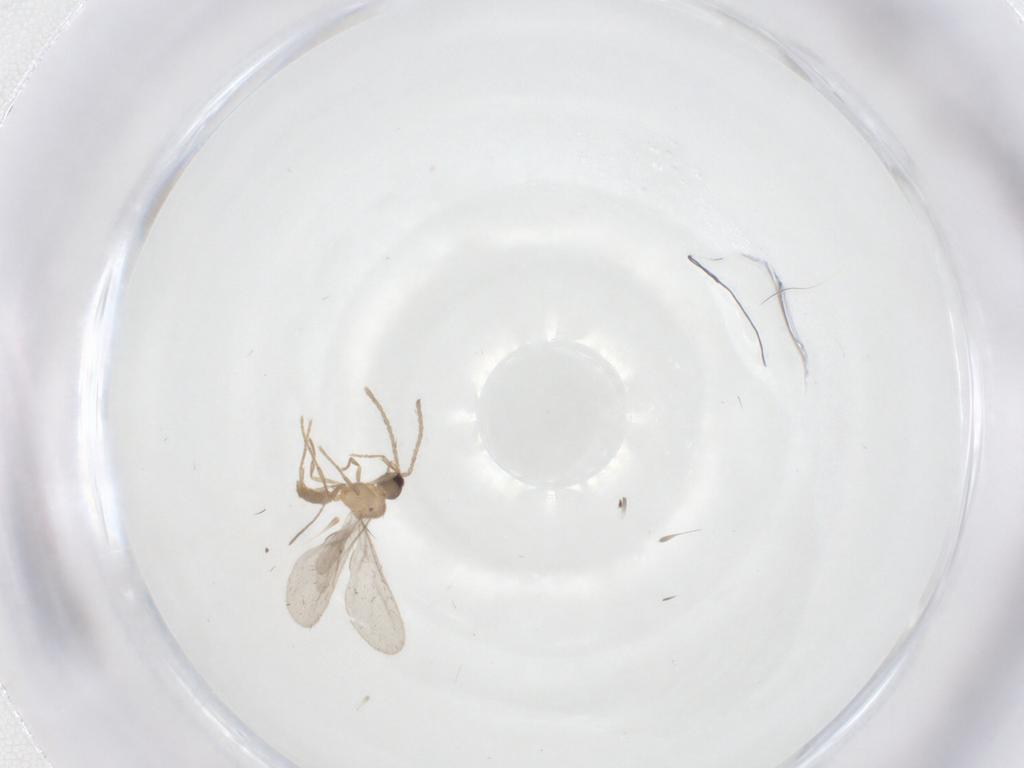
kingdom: Animalia
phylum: Arthropoda
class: Insecta
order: Hymenoptera
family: Formicidae
